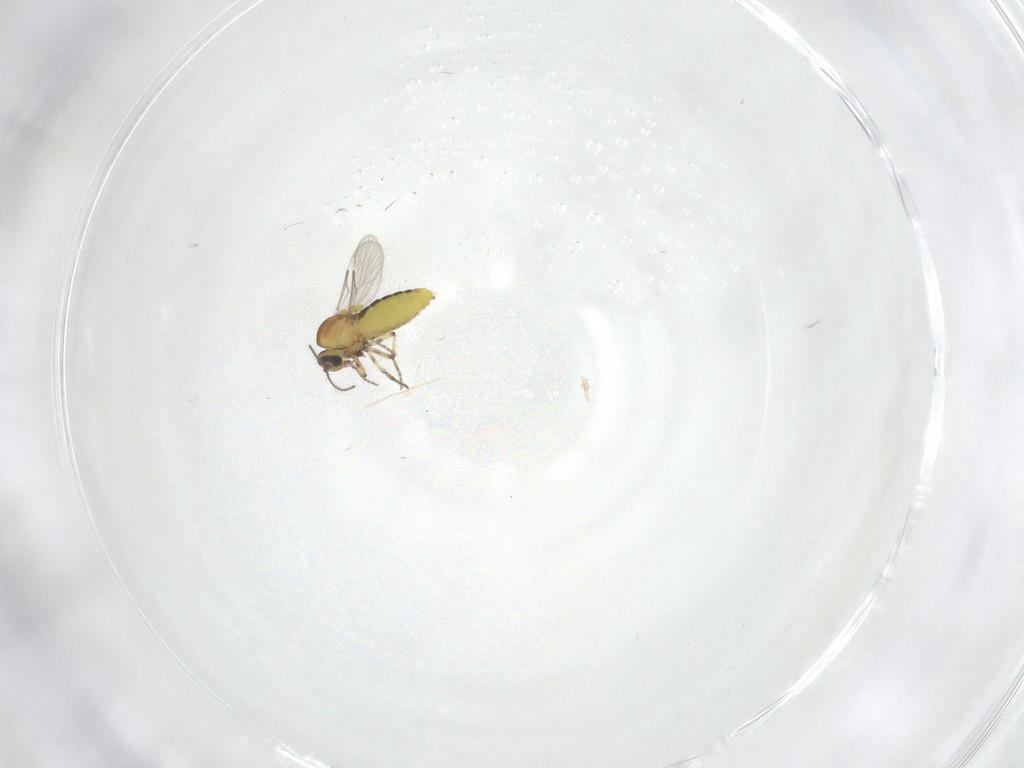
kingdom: Animalia
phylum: Arthropoda
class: Insecta
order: Diptera
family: Ceratopogonidae
